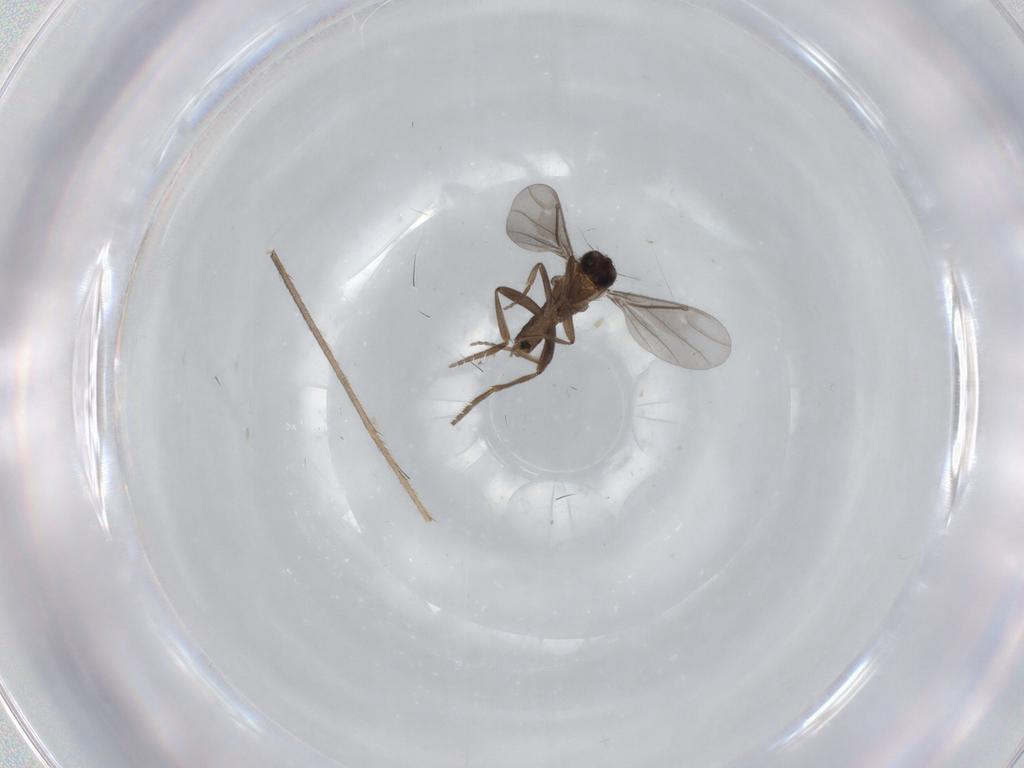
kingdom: Animalia
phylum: Arthropoda
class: Insecta
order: Diptera
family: Limoniidae
